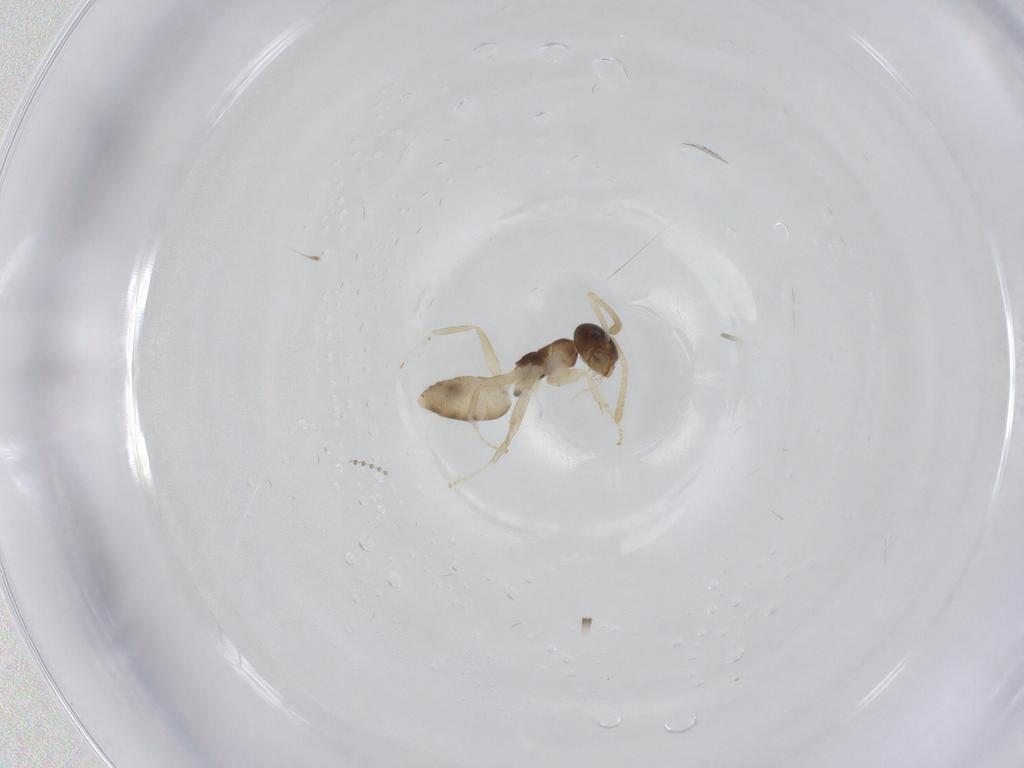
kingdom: Animalia
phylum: Arthropoda
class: Insecta
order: Hymenoptera
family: Formicidae
